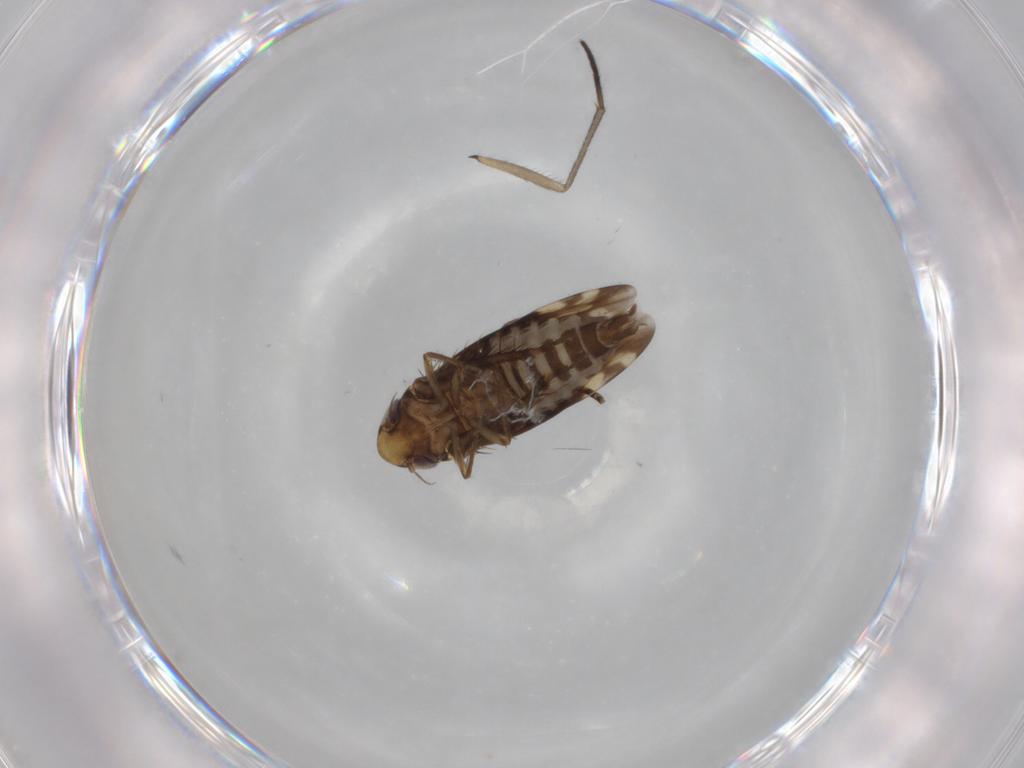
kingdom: Animalia
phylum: Arthropoda
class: Insecta
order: Hemiptera
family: Cicadellidae
